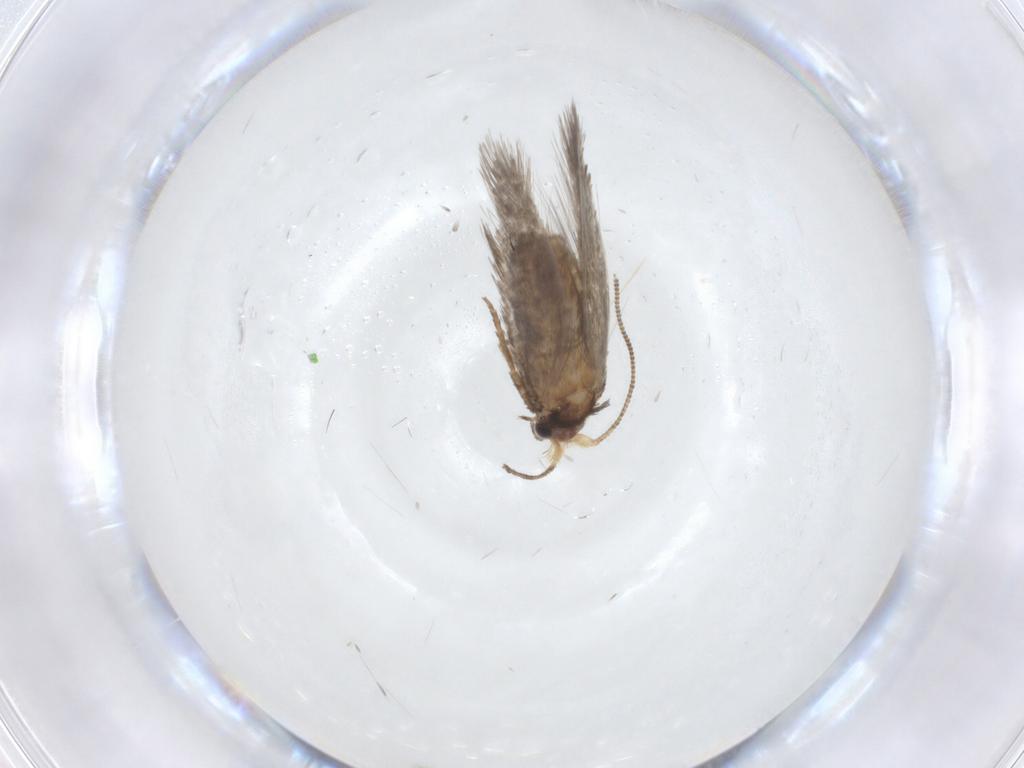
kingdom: Animalia
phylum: Arthropoda
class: Insecta
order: Lepidoptera
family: Nepticulidae
